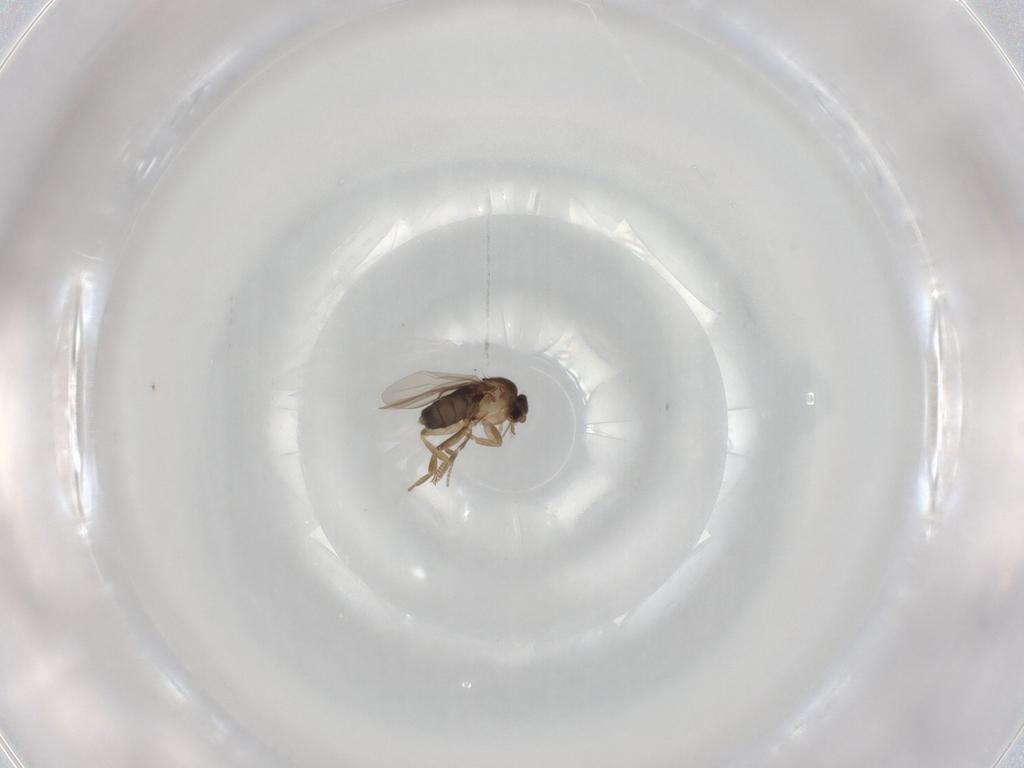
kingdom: Animalia
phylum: Arthropoda
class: Insecta
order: Diptera
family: Phoridae
